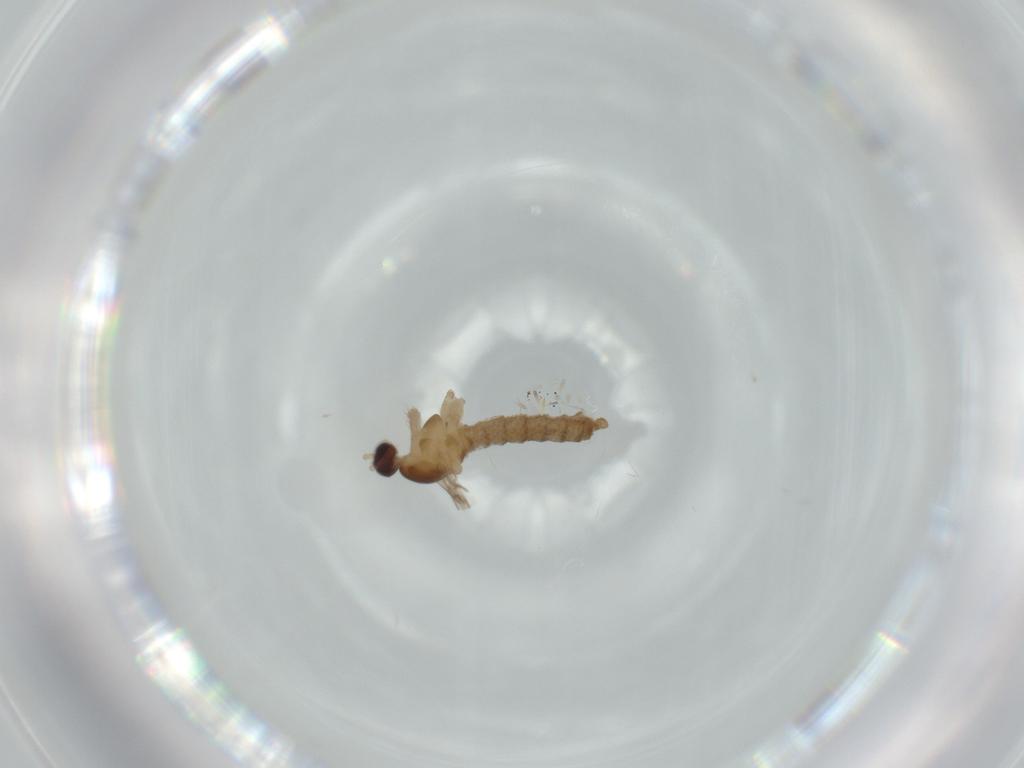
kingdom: Animalia
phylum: Arthropoda
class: Insecta
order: Diptera
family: Cecidomyiidae
